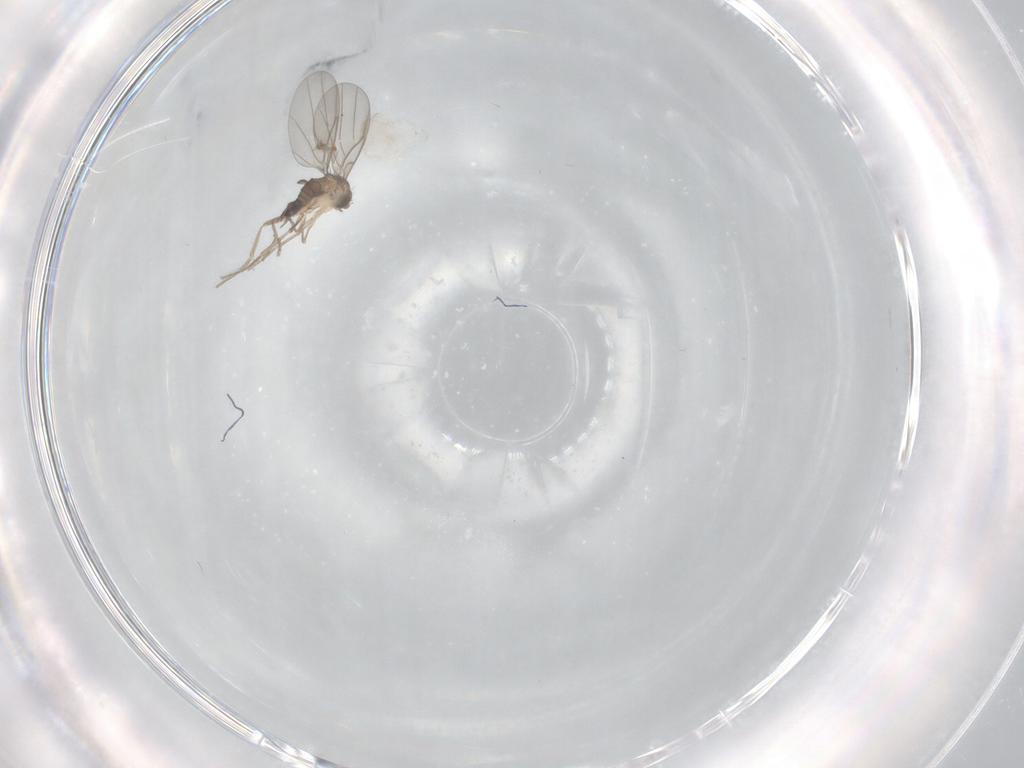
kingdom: Animalia
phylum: Arthropoda
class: Insecta
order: Diptera
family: Phoridae
